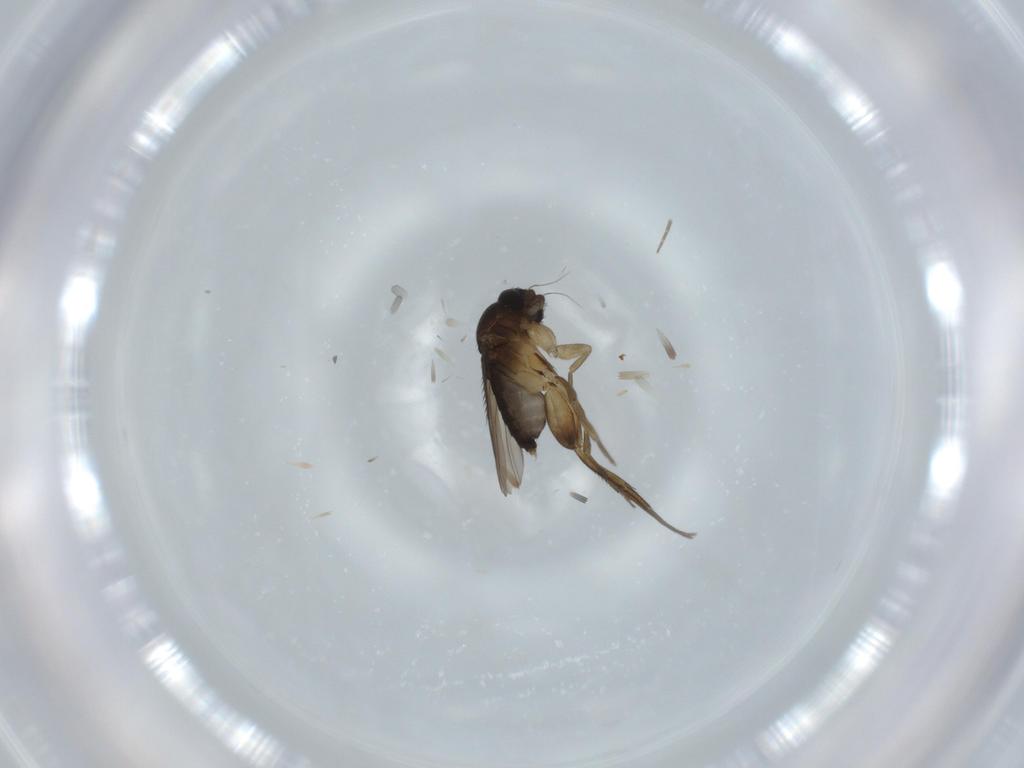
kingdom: Animalia
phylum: Arthropoda
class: Insecta
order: Diptera
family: Phoridae
